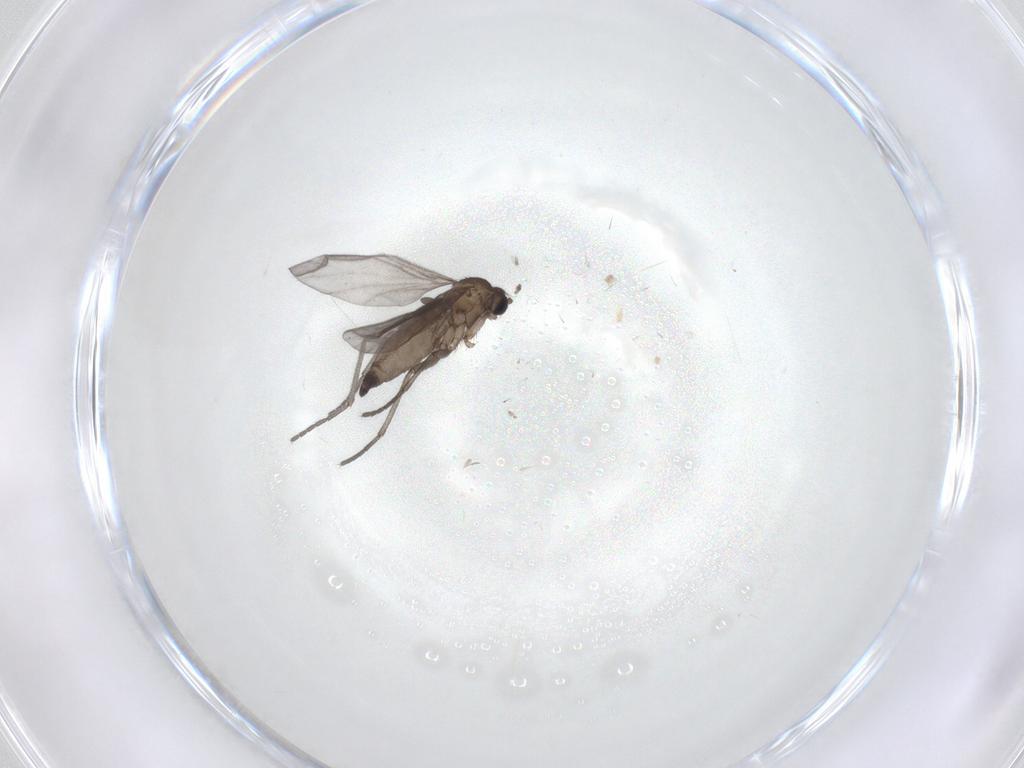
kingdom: Animalia
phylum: Arthropoda
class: Insecta
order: Diptera
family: Sciaridae
